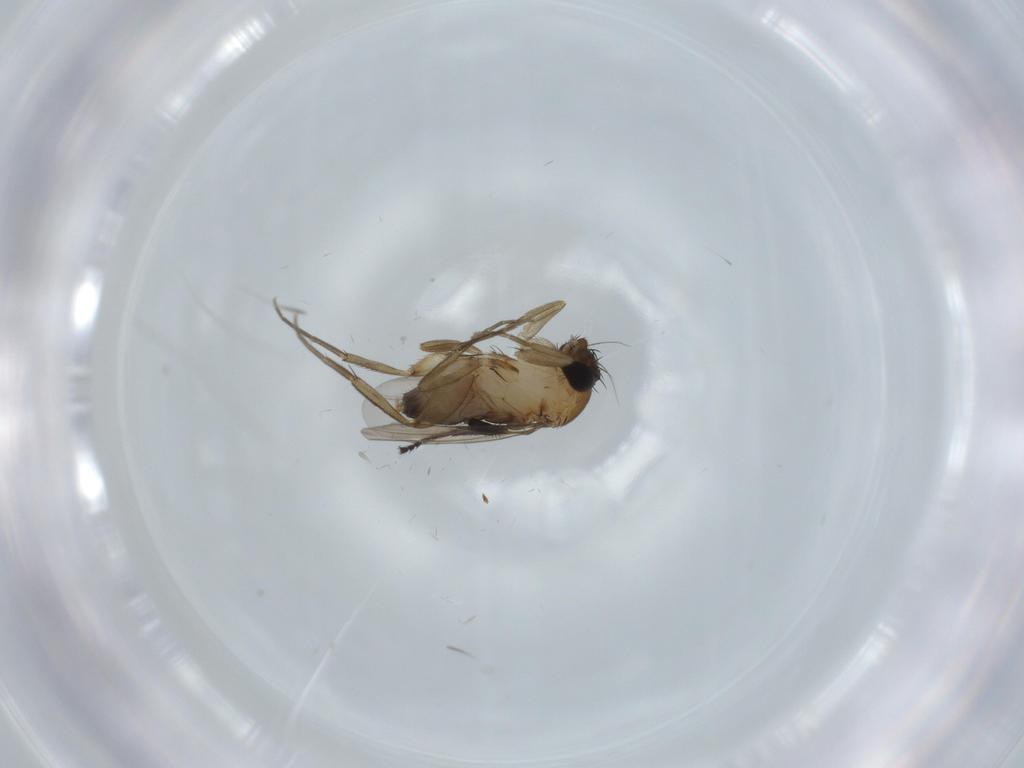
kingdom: Animalia
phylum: Arthropoda
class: Insecta
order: Diptera
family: Phoridae
